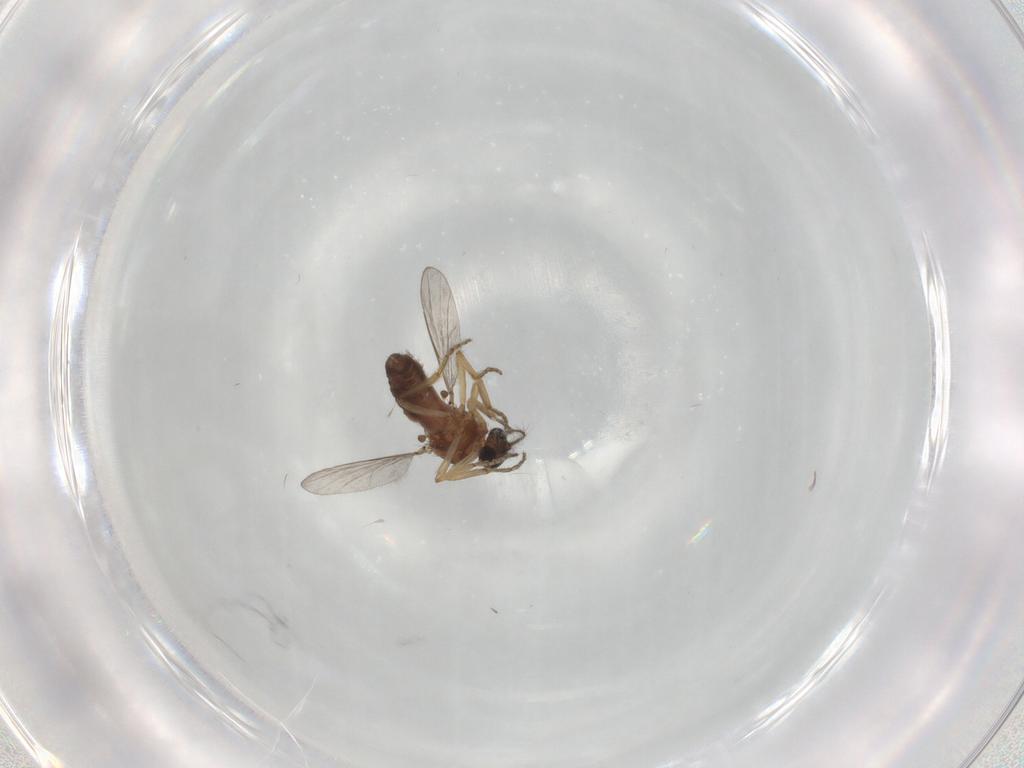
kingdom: Animalia
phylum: Arthropoda
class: Insecta
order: Diptera
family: Ceratopogonidae
